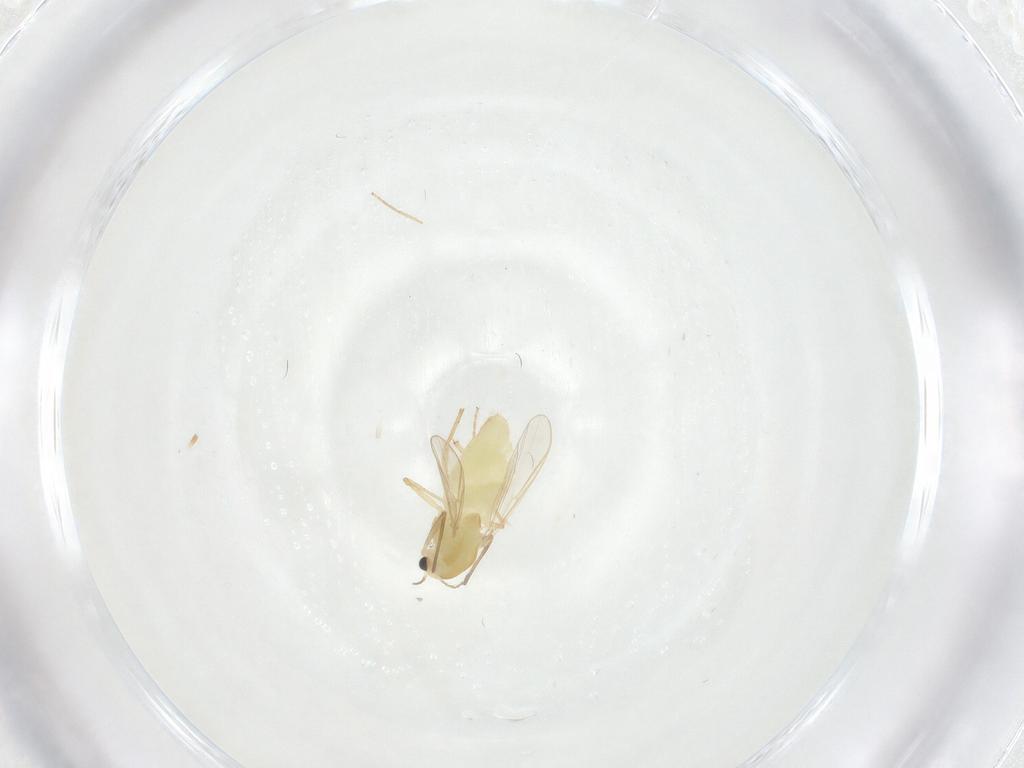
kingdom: Animalia
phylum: Arthropoda
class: Insecta
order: Diptera
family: Chironomidae
